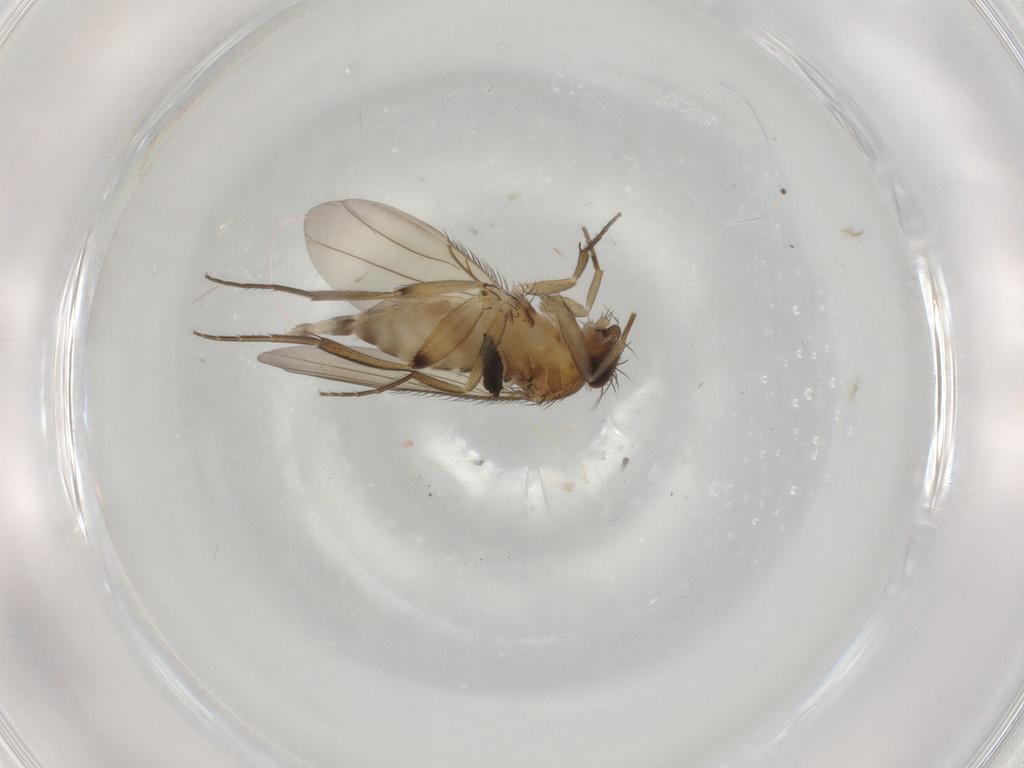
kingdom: Animalia
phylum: Arthropoda
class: Insecta
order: Diptera
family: Phoridae
